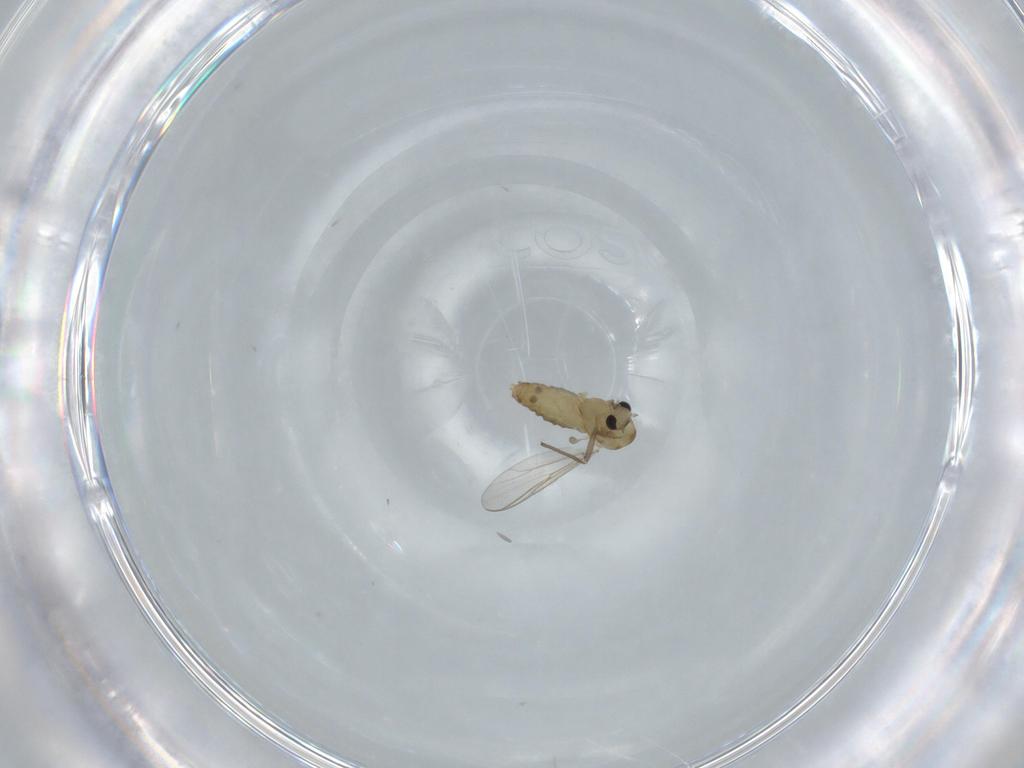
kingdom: Animalia
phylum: Arthropoda
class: Insecta
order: Diptera
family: Chironomidae
